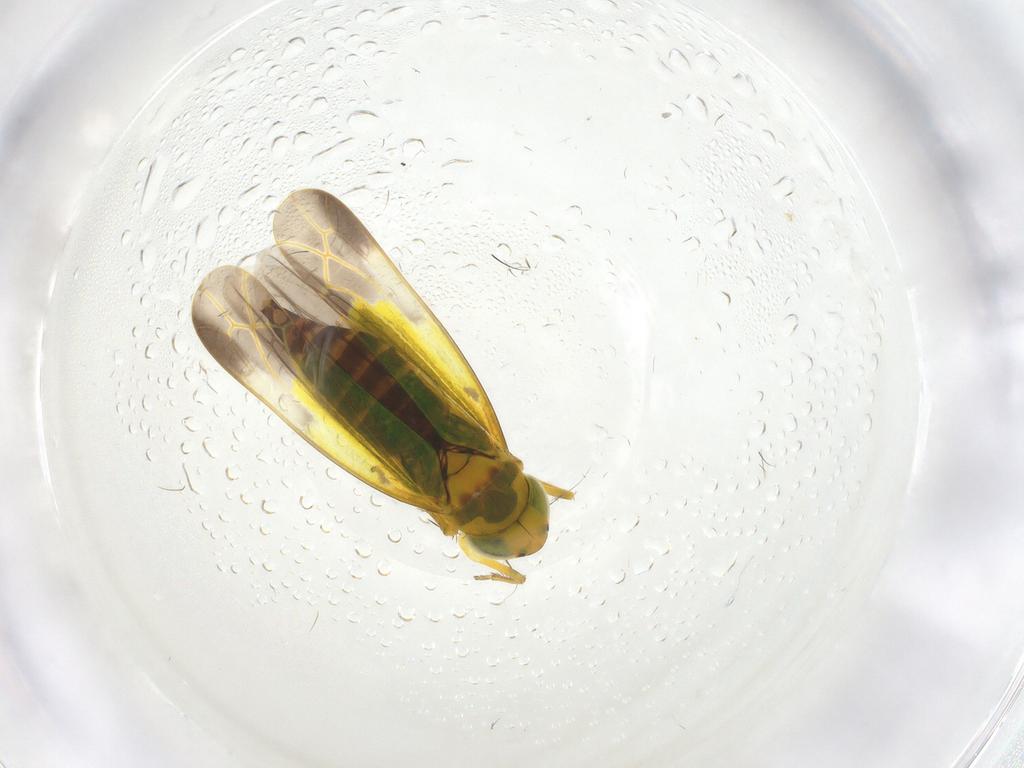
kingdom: Animalia
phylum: Arthropoda
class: Insecta
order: Hemiptera
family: Cicadellidae
